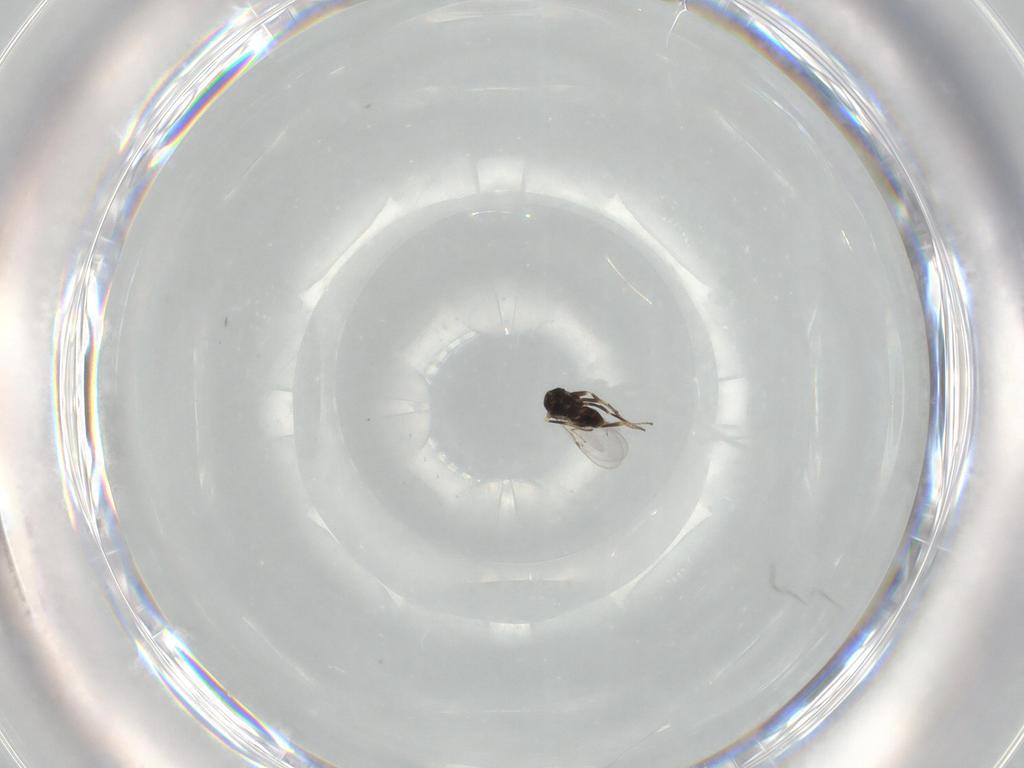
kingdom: Animalia
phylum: Arthropoda
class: Insecta
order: Hymenoptera
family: Scelionidae
